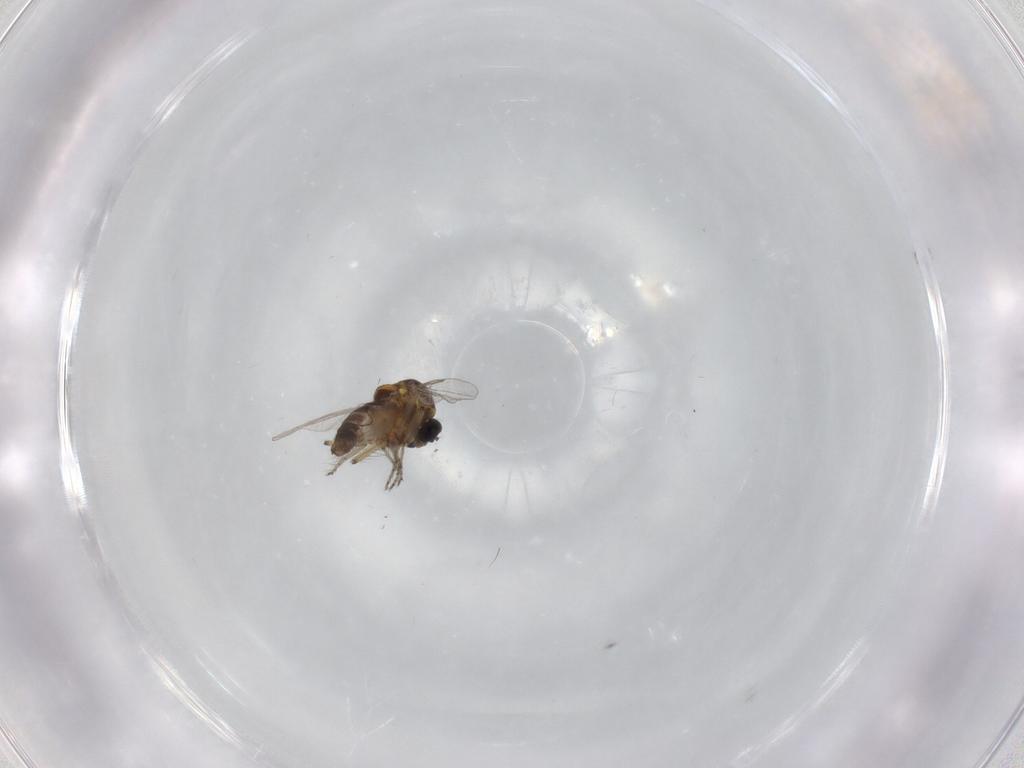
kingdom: Animalia
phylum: Arthropoda
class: Insecta
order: Diptera
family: Ceratopogonidae
